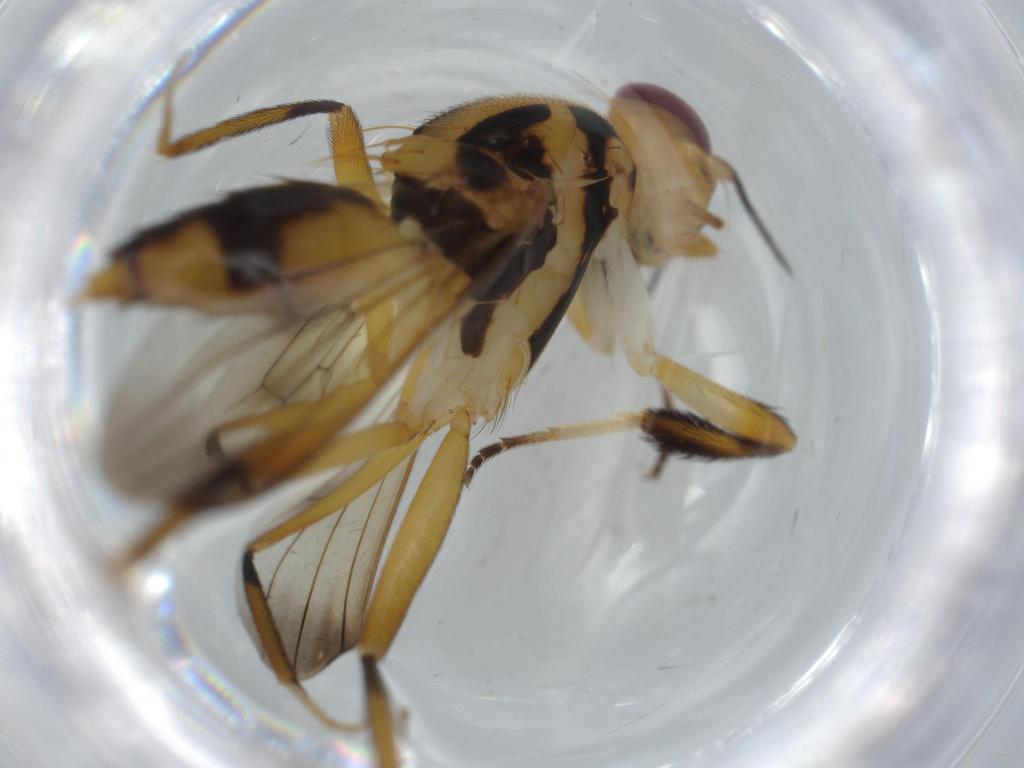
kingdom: Animalia
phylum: Arthropoda
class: Insecta
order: Diptera
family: Clusiidae
